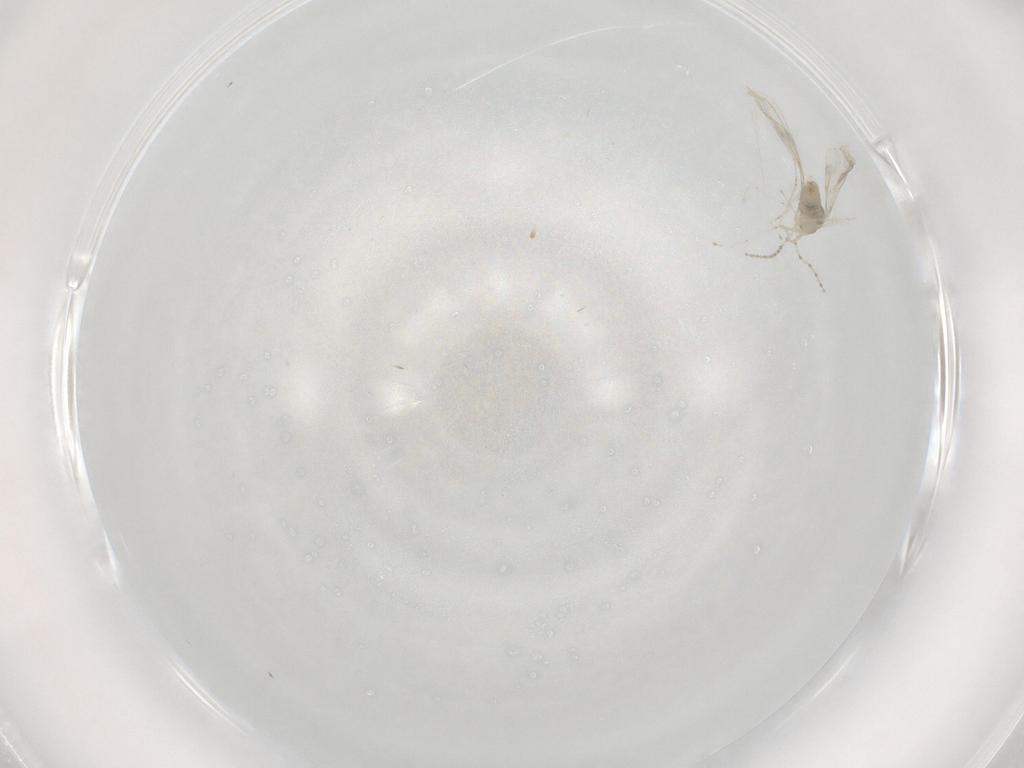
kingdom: Animalia
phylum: Arthropoda
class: Insecta
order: Diptera
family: Cecidomyiidae
